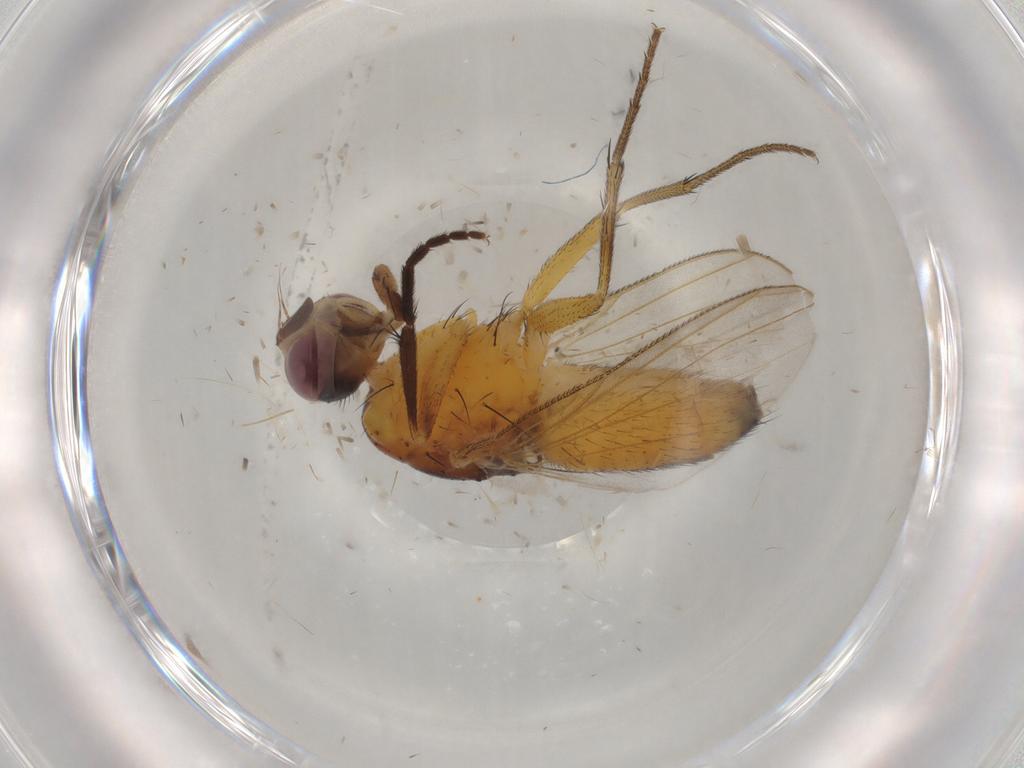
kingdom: Animalia
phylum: Arthropoda
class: Insecta
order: Diptera
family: Muscidae
